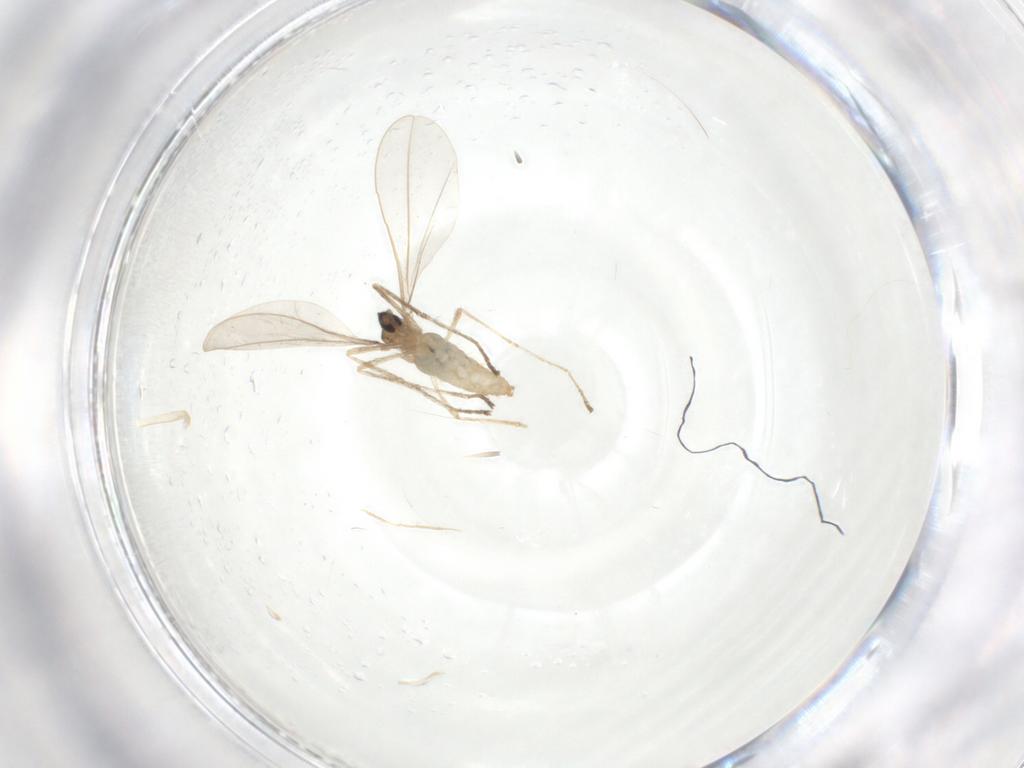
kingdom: Animalia
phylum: Arthropoda
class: Insecta
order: Diptera
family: Cecidomyiidae
